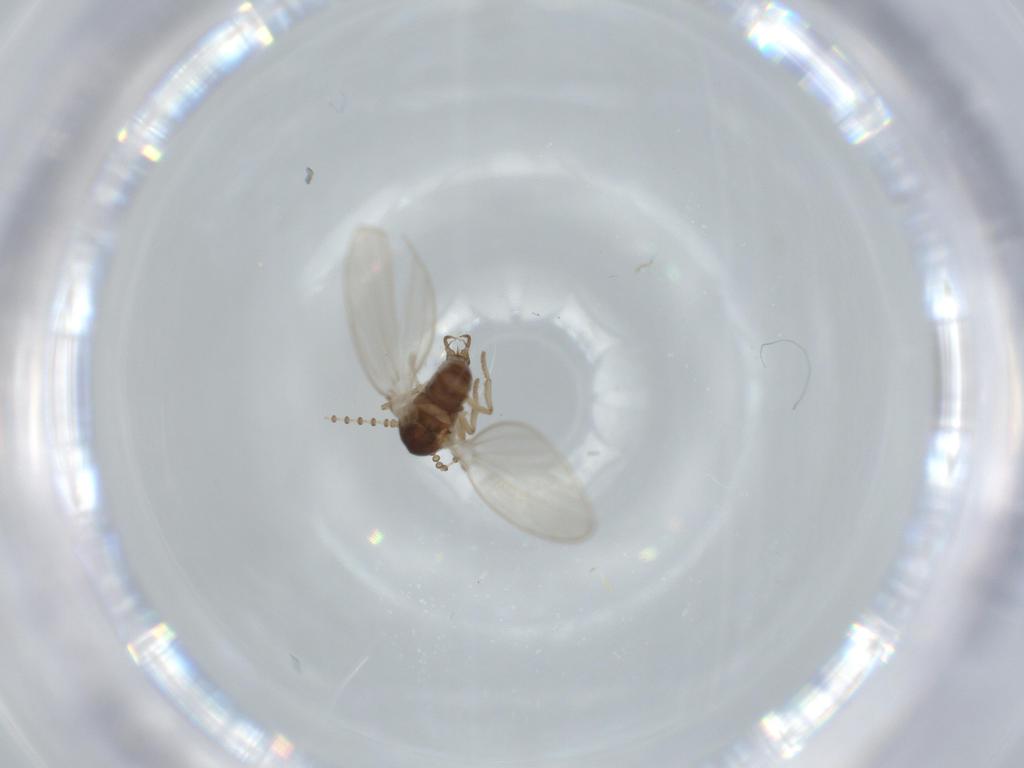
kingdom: Animalia
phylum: Arthropoda
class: Insecta
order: Diptera
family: Psychodidae
